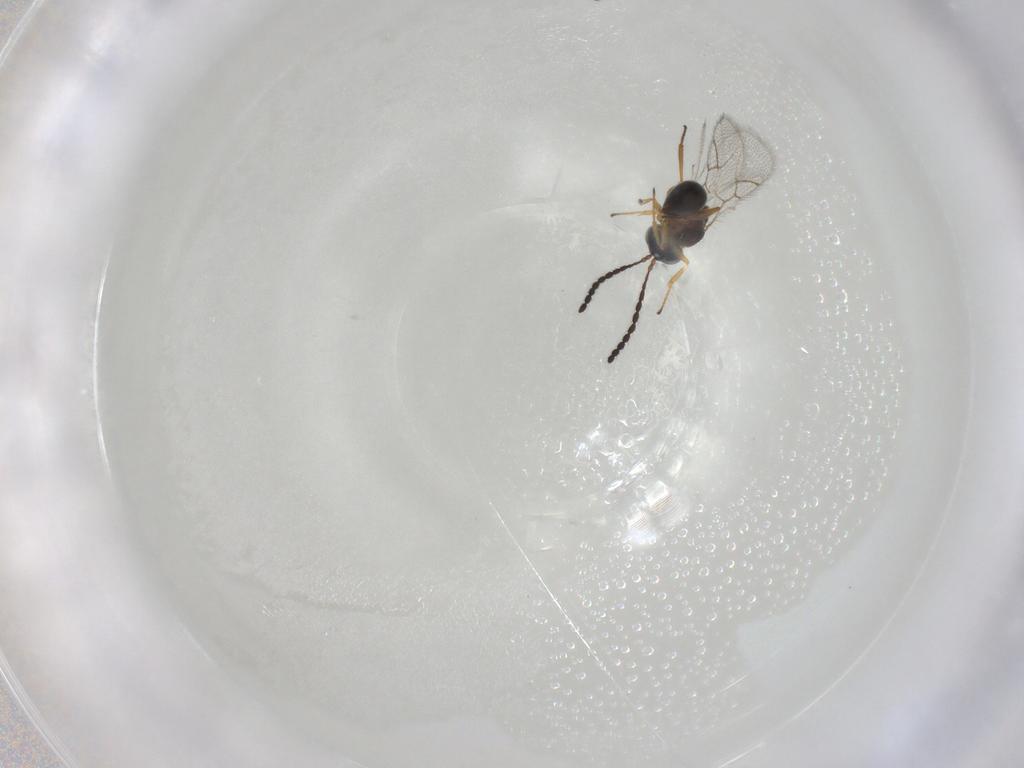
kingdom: Animalia
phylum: Arthropoda
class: Insecta
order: Hymenoptera
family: Figitidae
